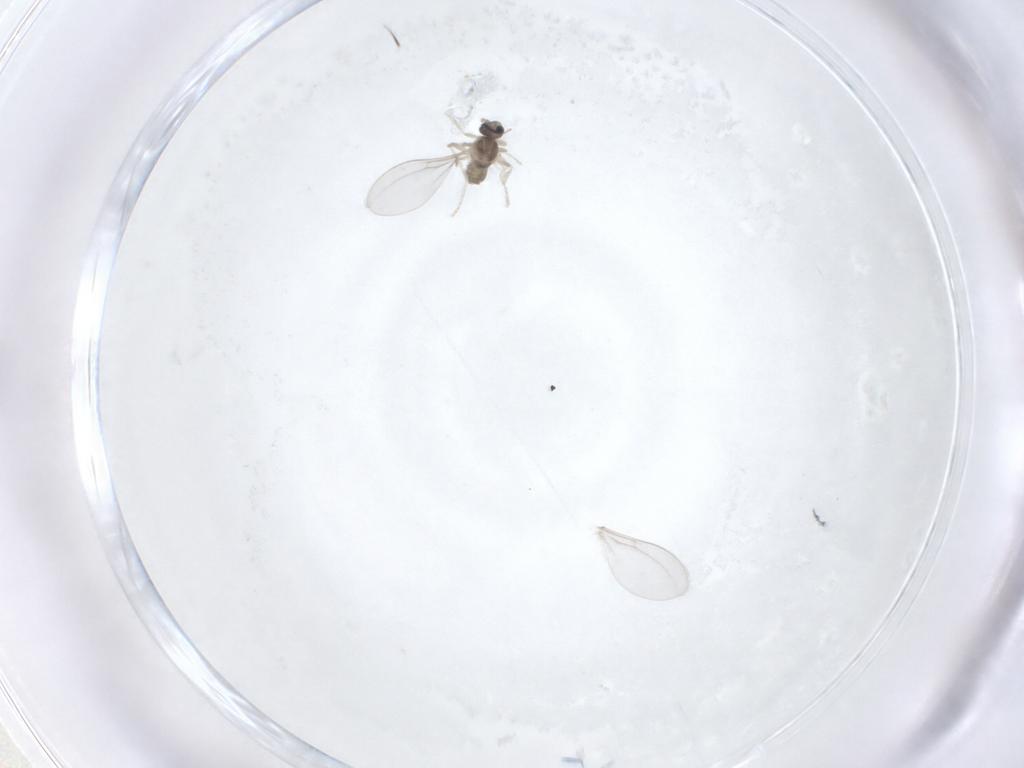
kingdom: Animalia
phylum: Arthropoda
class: Insecta
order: Diptera
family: Cecidomyiidae
